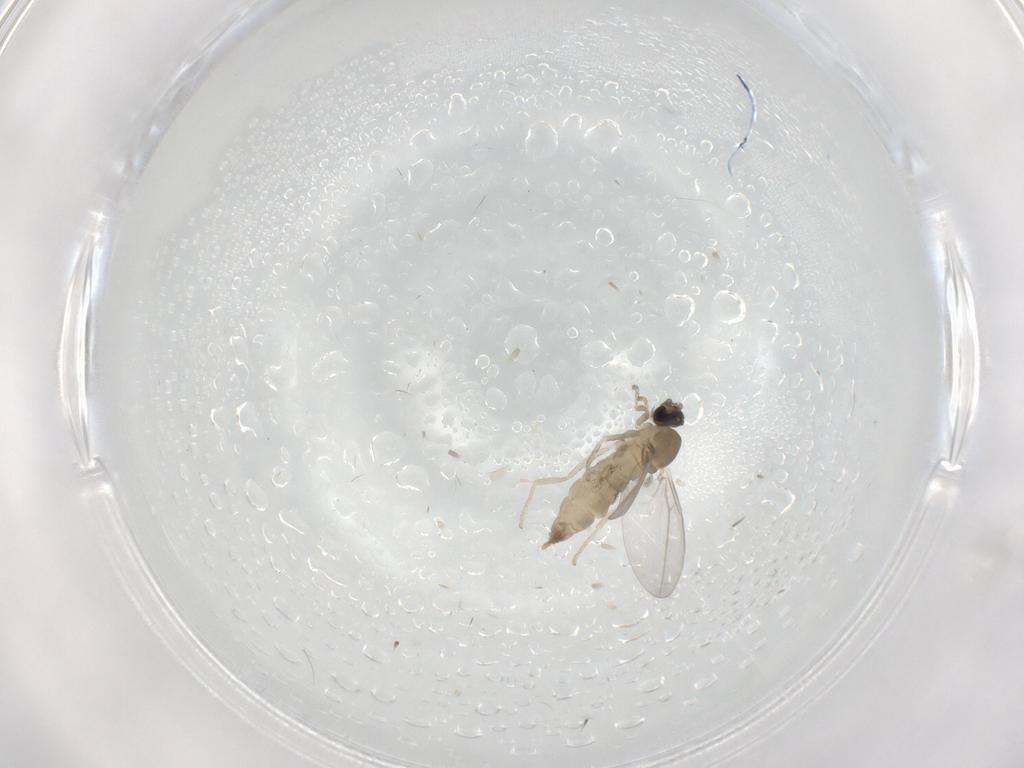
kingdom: Animalia
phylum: Arthropoda
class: Insecta
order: Diptera
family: Cecidomyiidae
